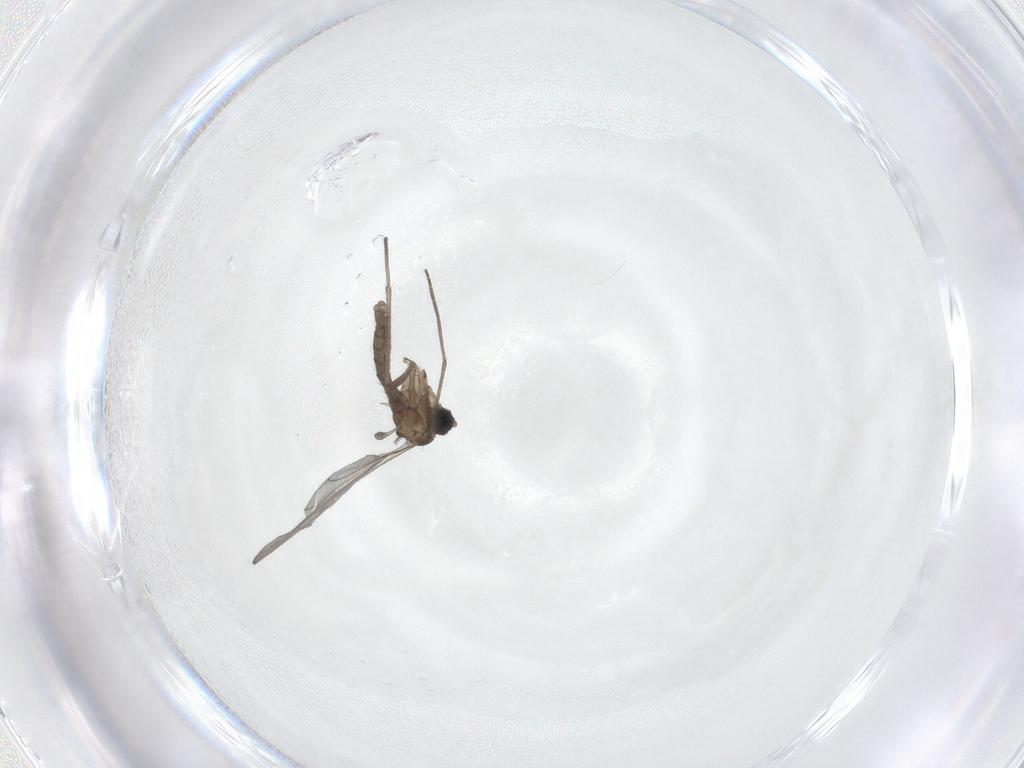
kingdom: Animalia
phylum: Arthropoda
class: Insecta
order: Diptera
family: Sciaridae
